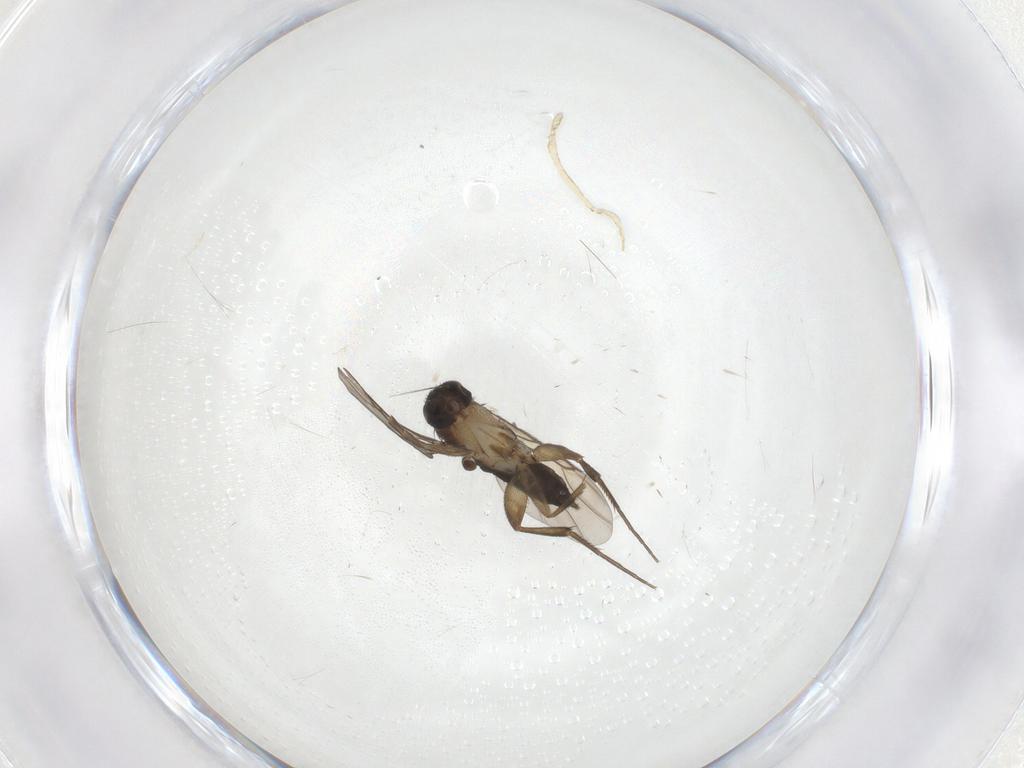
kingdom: Animalia
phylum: Arthropoda
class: Insecta
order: Diptera
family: Phoridae
